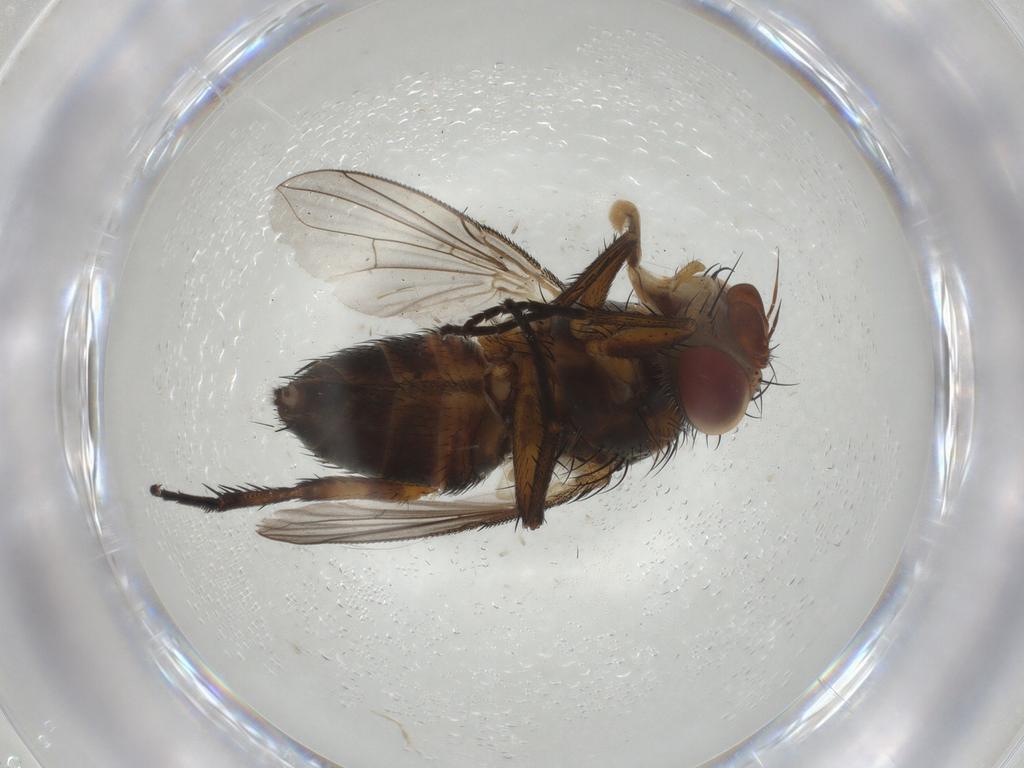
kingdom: Animalia
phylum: Arthropoda
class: Insecta
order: Diptera
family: Tachinidae
